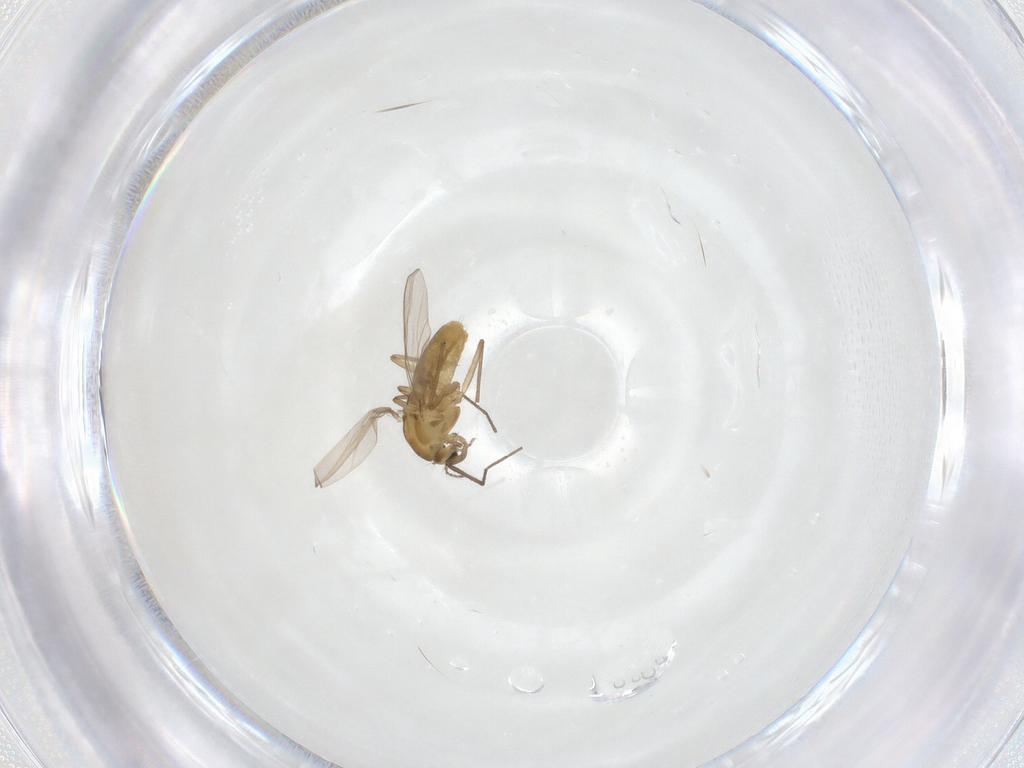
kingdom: Animalia
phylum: Arthropoda
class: Insecta
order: Diptera
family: Chironomidae
